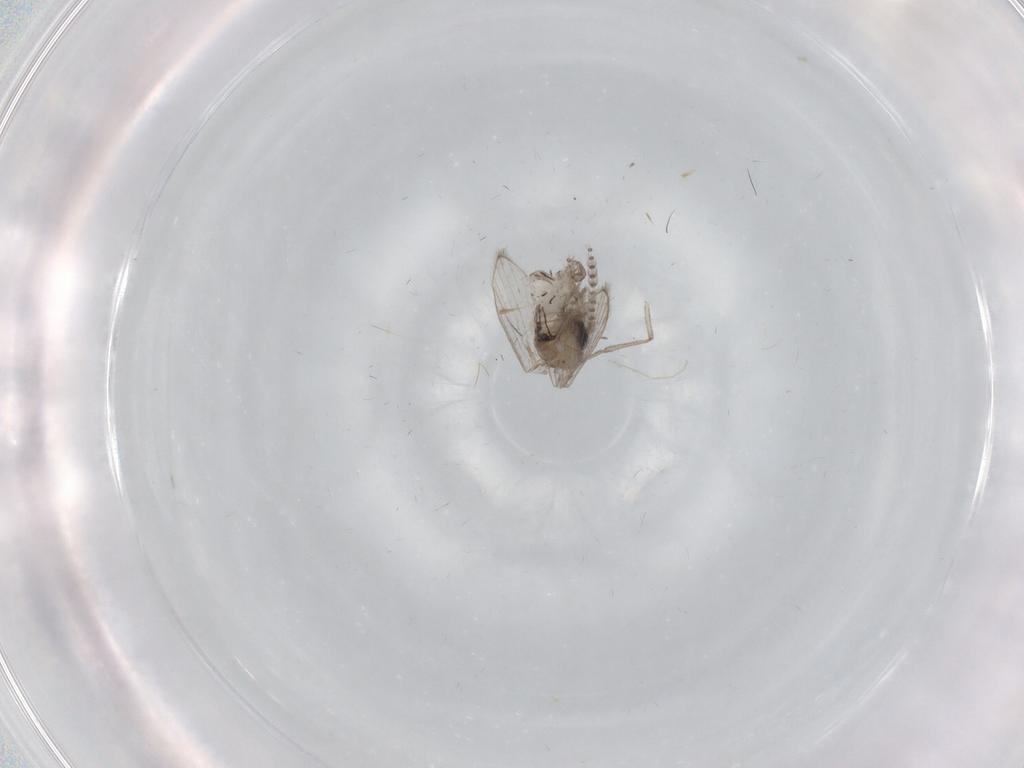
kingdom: Animalia
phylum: Arthropoda
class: Insecta
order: Diptera
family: Psychodidae
